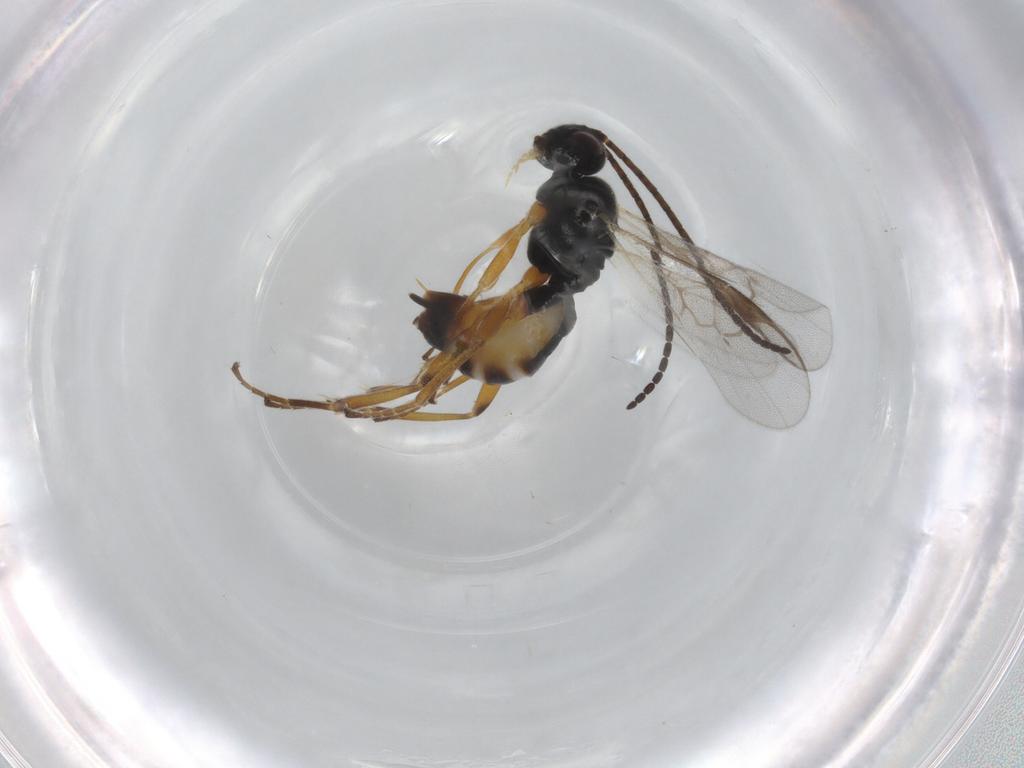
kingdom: Animalia
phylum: Arthropoda
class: Insecta
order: Hymenoptera
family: Braconidae
